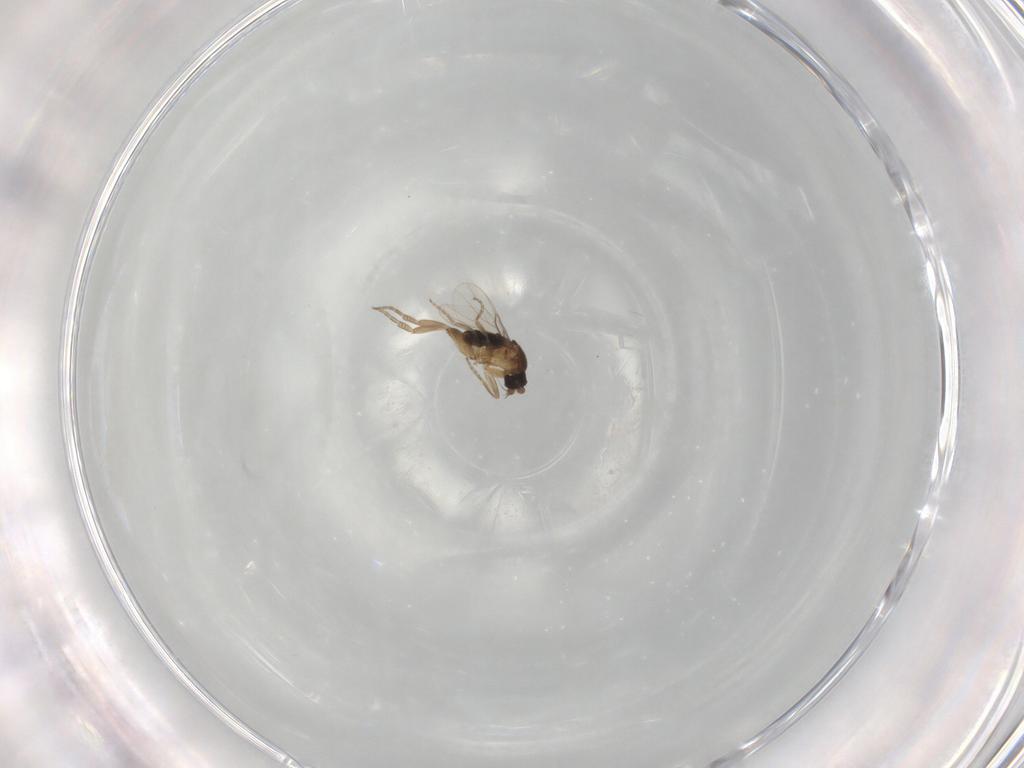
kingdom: Animalia
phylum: Arthropoda
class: Insecta
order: Diptera
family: Phoridae
